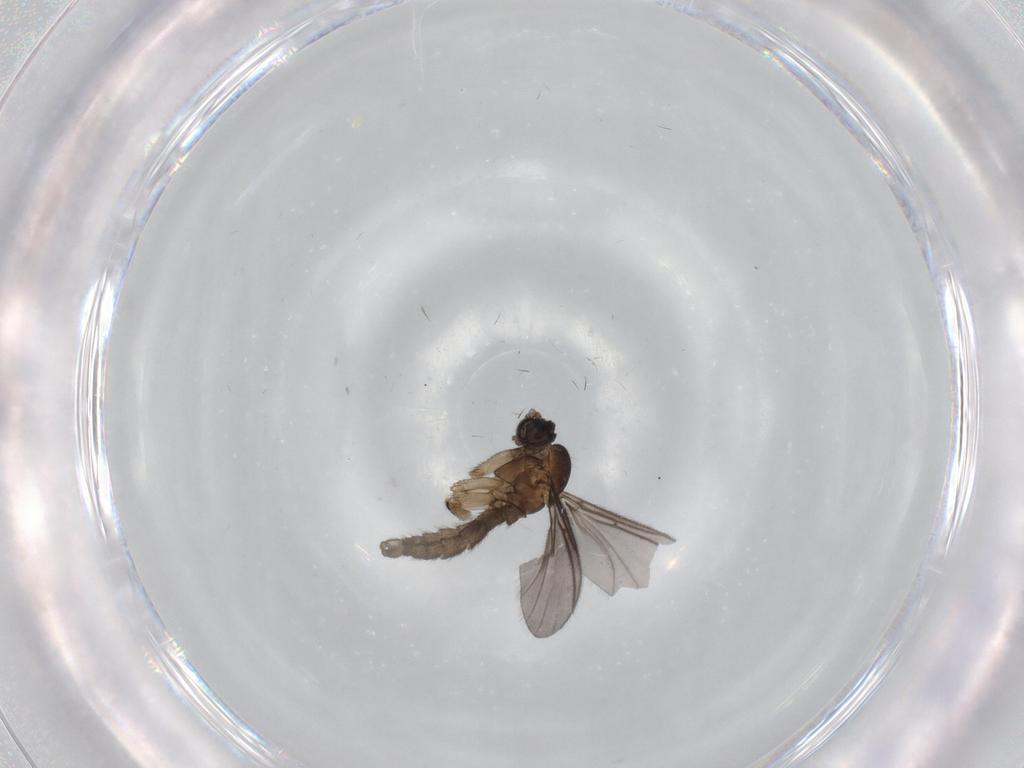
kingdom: Animalia
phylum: Arthropoda
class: Insecta
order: Diptera
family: Sciaridae
